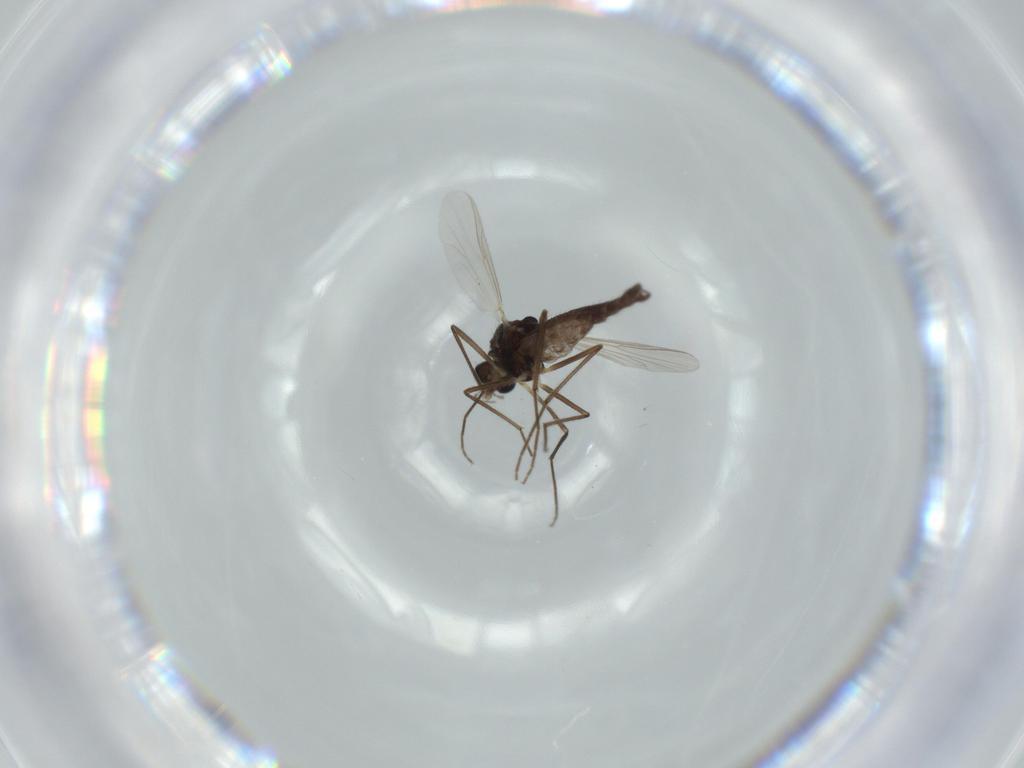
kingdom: Animalia
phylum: Arthropoda
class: Insecta
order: Diptera
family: Chironomidae
